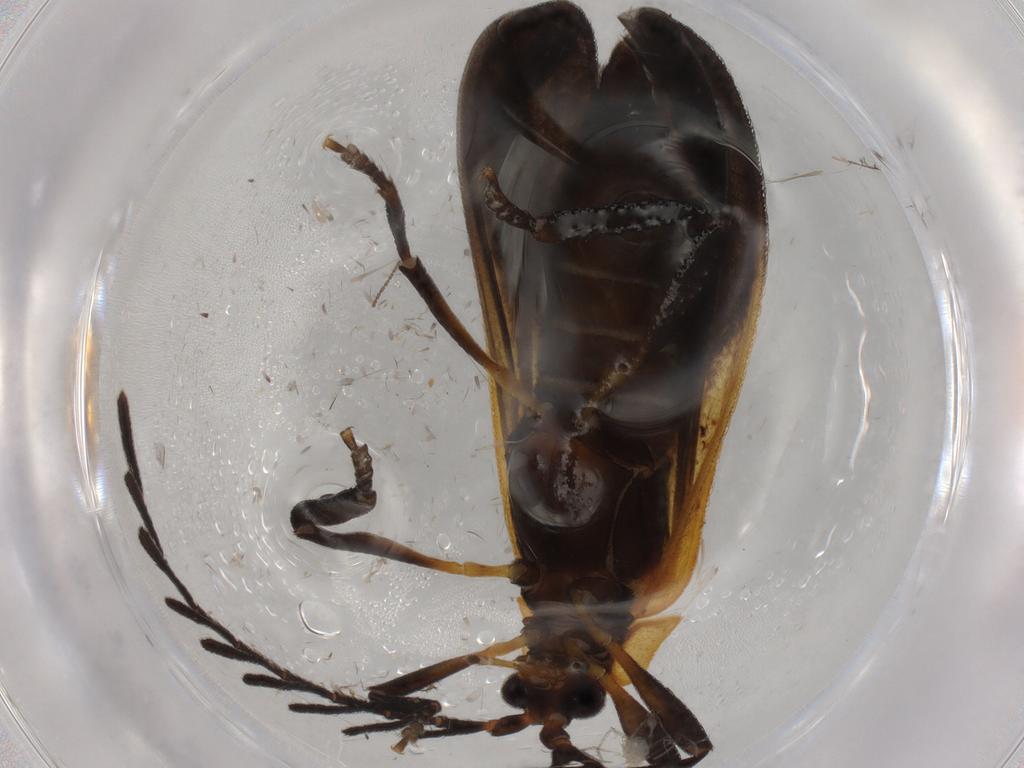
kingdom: Animalia
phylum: Arthropoda
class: Insecta
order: Coleoptera
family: Lycidae
